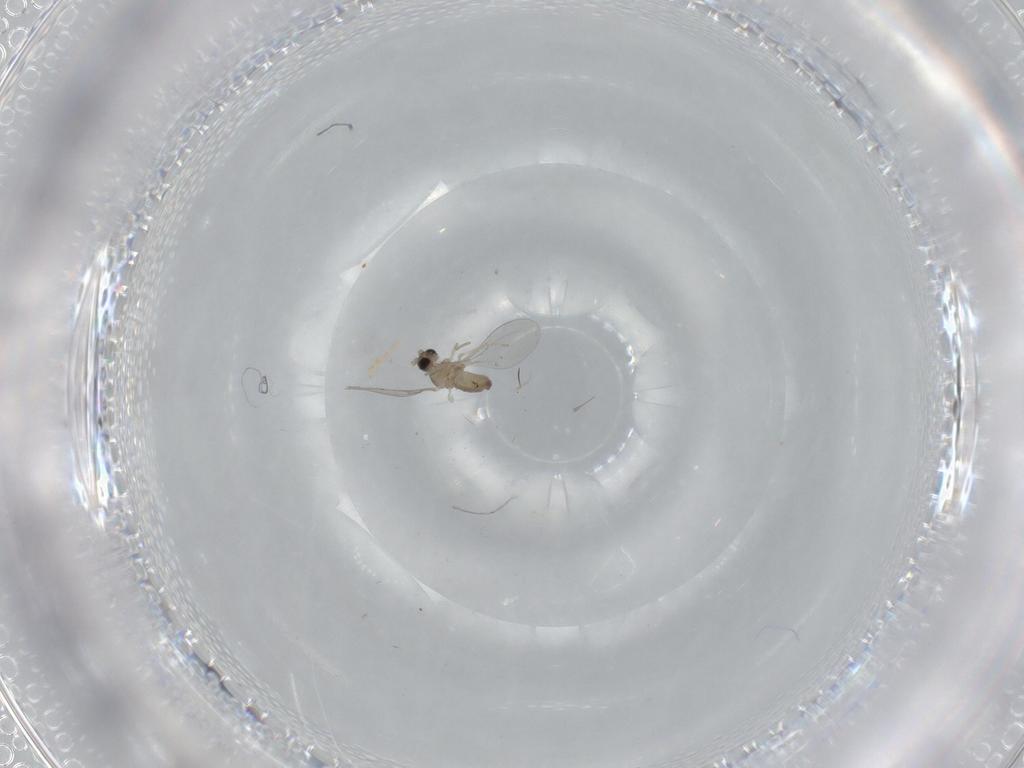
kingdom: Animalia
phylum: Arthropoda
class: Insecta
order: Diptera
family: Cecidomyiidae
